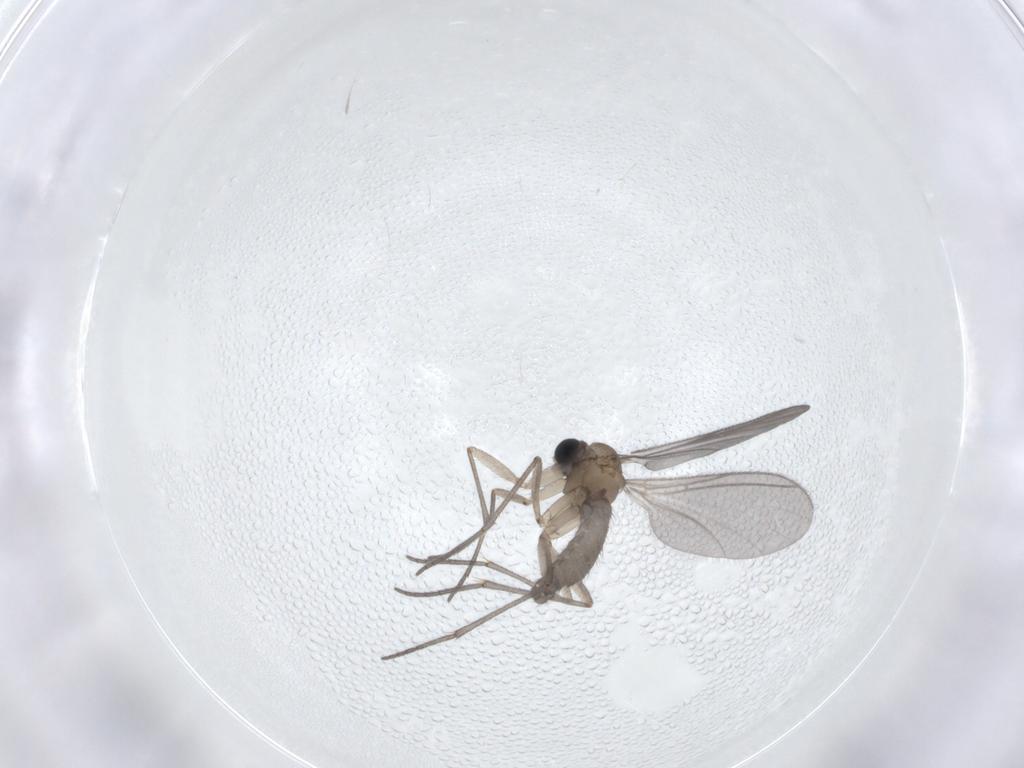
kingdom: Animalia
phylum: Arthropoda
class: Insecta
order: Diptera
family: Sciaridae
